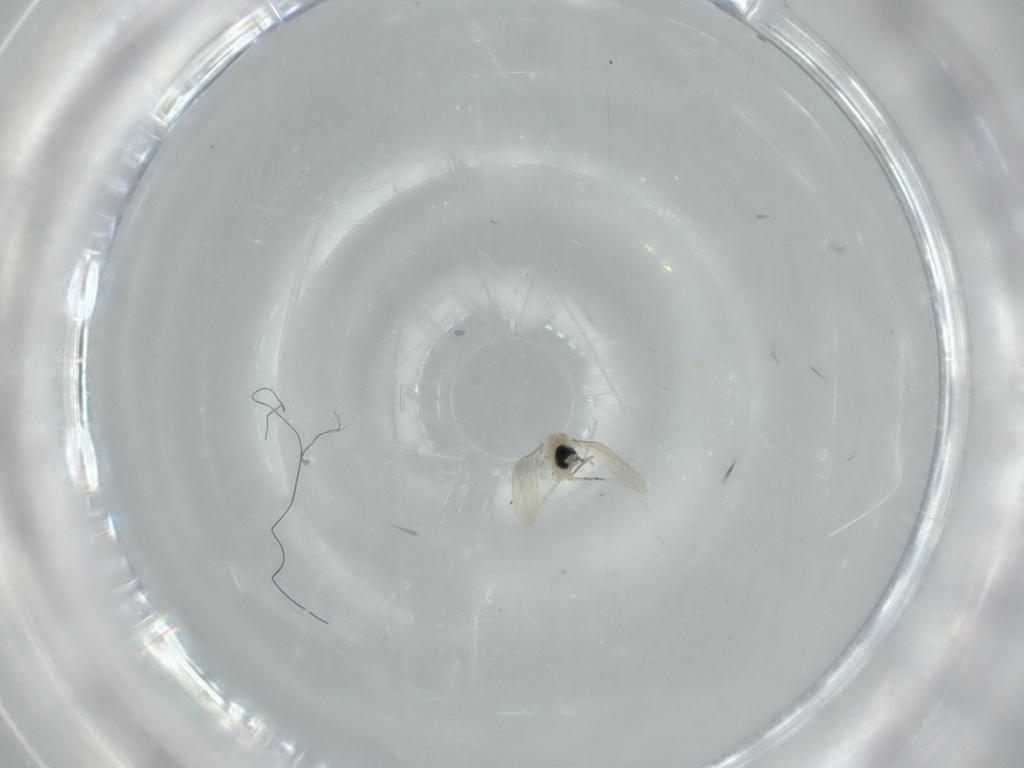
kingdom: Animalia
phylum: Arthropoda
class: Insecta
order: Diptera
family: Cecidomyiidae
